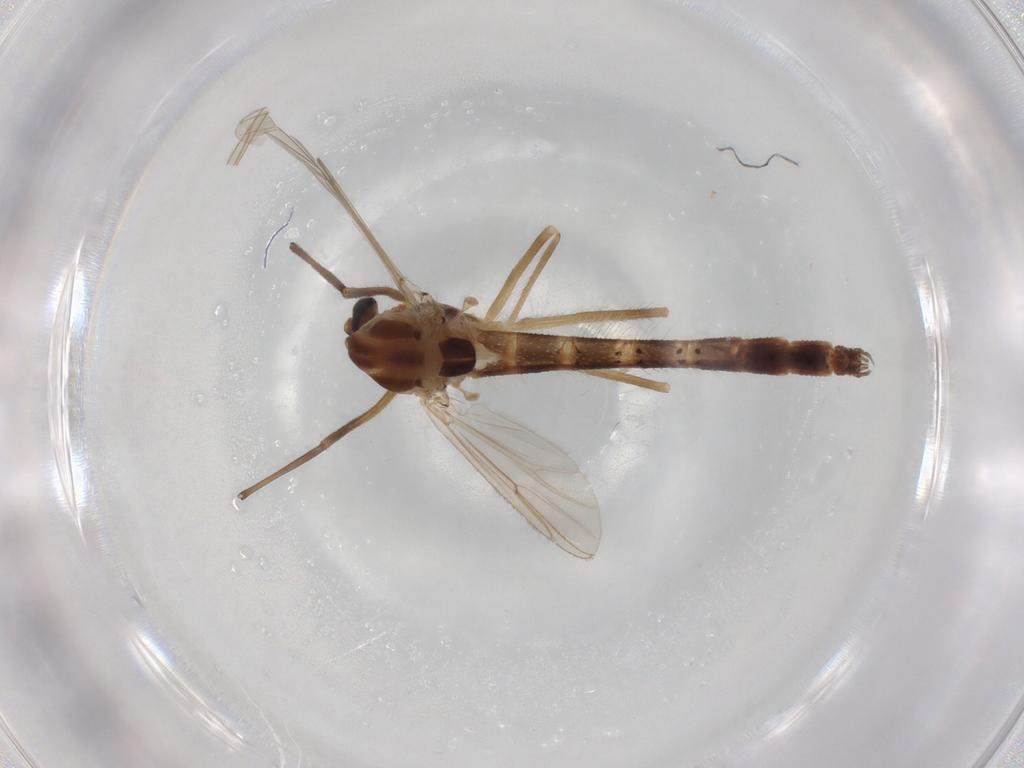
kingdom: Animalia
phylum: Arthropoda
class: Insecta
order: Diptera
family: Chironomidae
